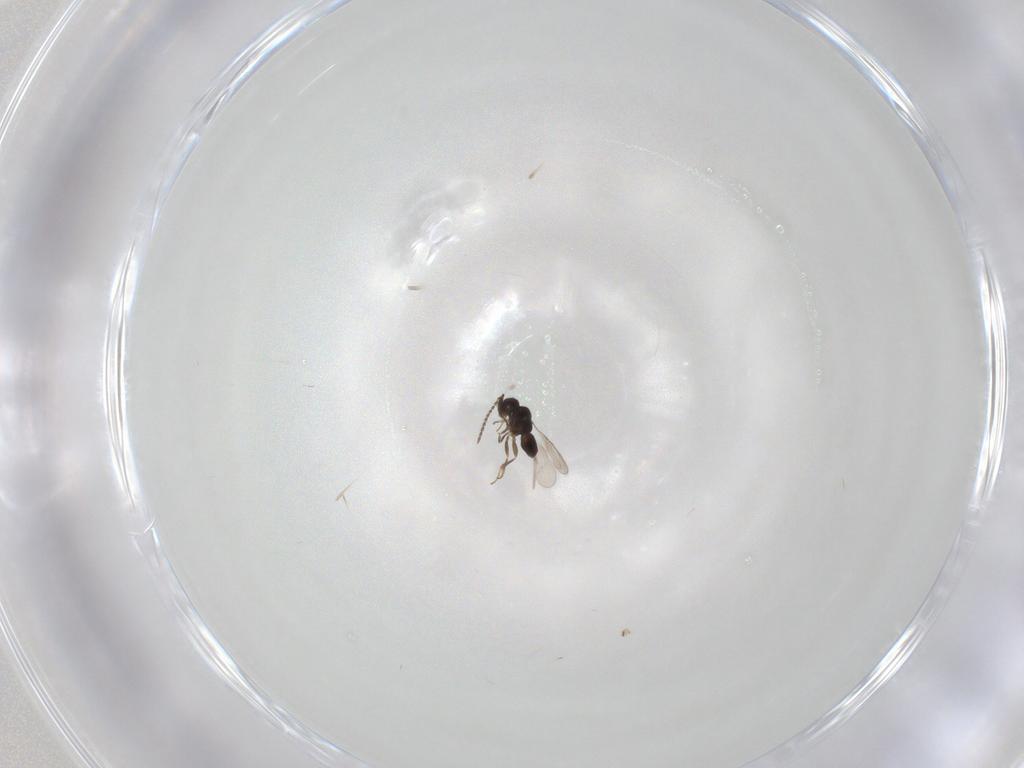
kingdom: Animalia
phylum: Arthropoda
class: Insecta
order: Hymenoptera
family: Ceraphronidae
